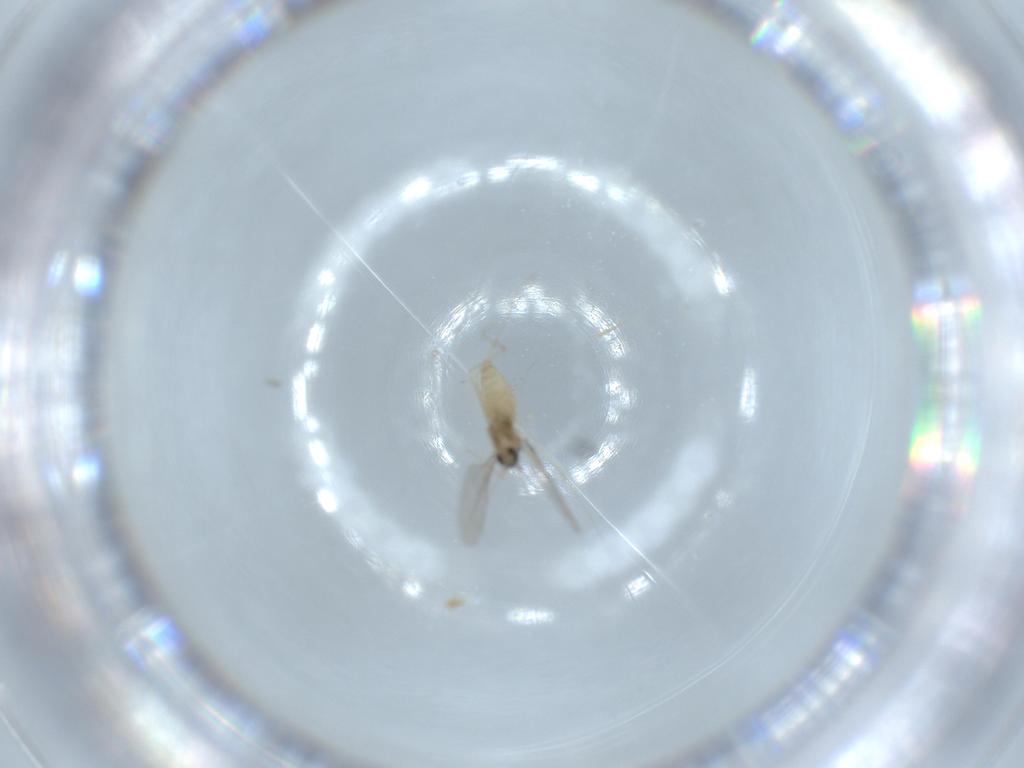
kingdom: Animalia
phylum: Arthropoda
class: Insecta
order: Diptera
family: Cecidomyiidae
